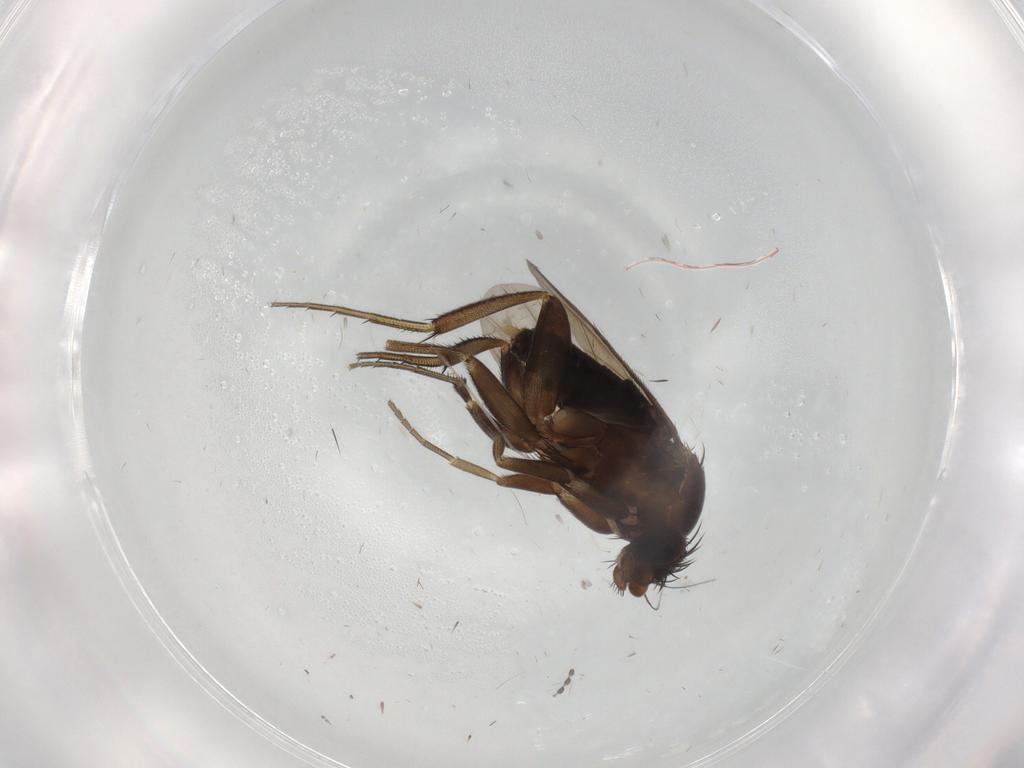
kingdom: Animalia
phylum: Arthropoda
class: Insecta
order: Diptera
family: Phoridae
